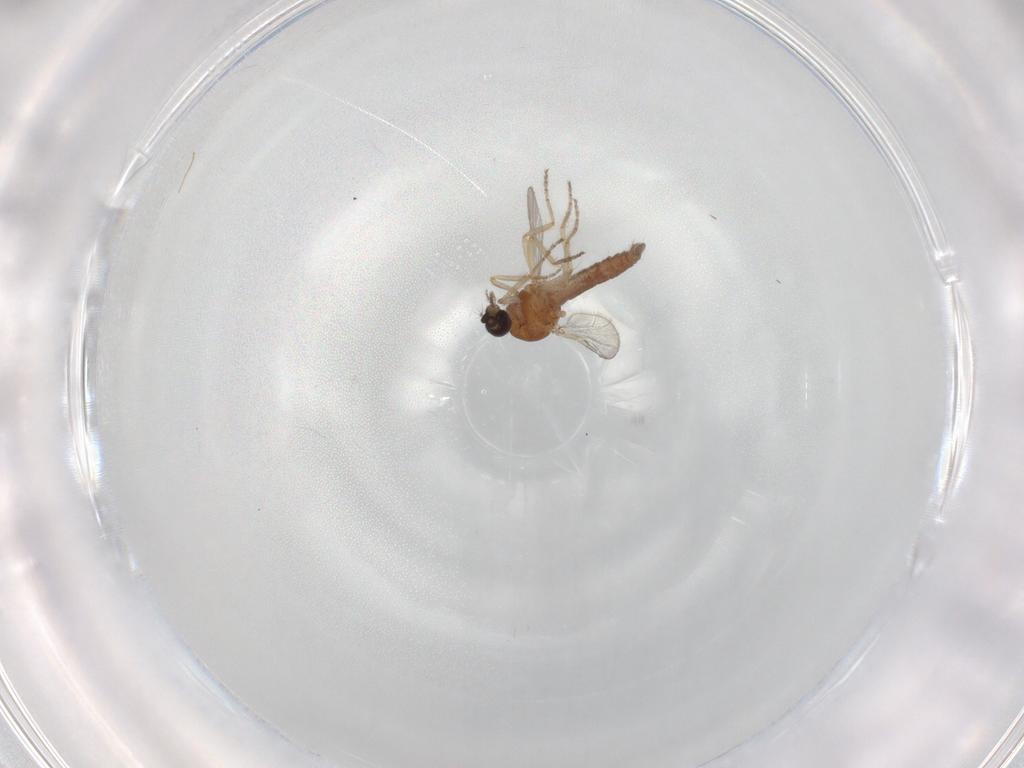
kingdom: Animalia
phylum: Arthropoda
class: Insecta
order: Diptera
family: Ceratopogonidae
